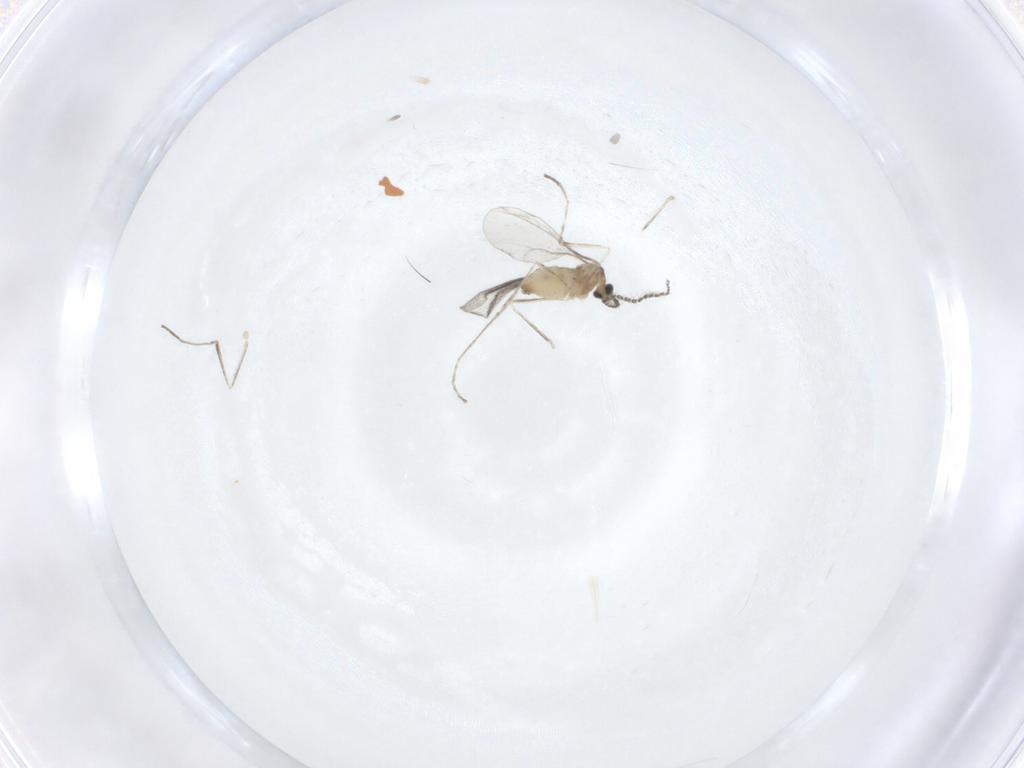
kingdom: Animalia
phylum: Arthropoda
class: Insecta
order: Diptera
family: Cecidomyiidae
